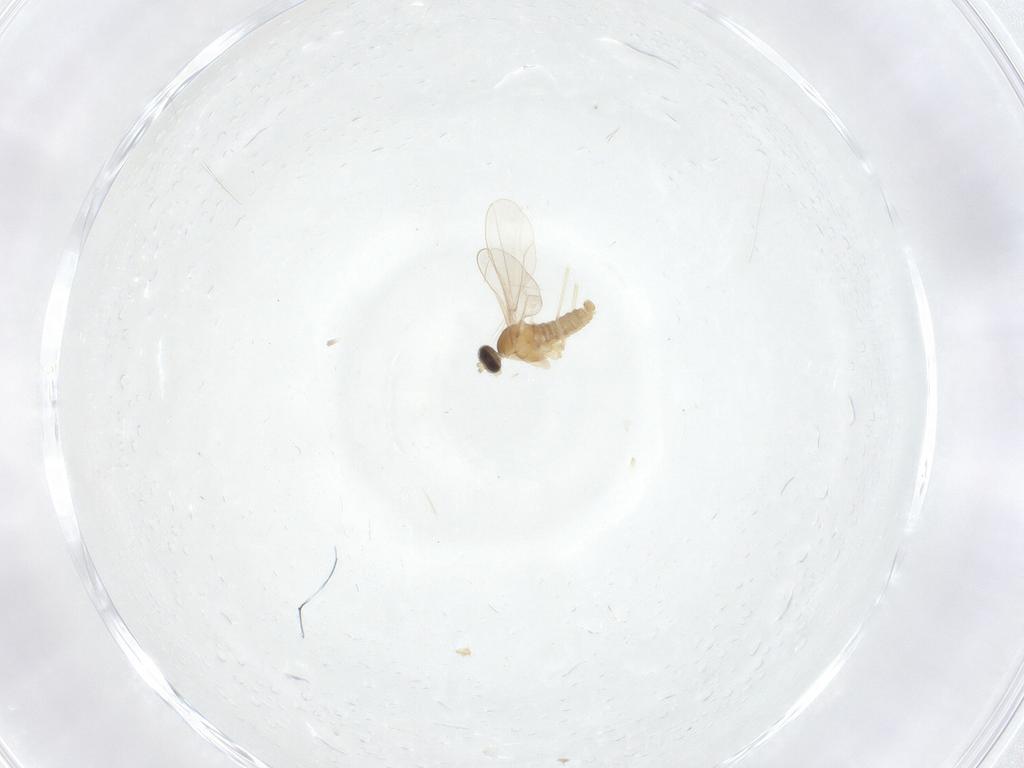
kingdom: Animalia
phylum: Arthropoda
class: Insecta
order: Diptera
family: Cecidomyiidae
